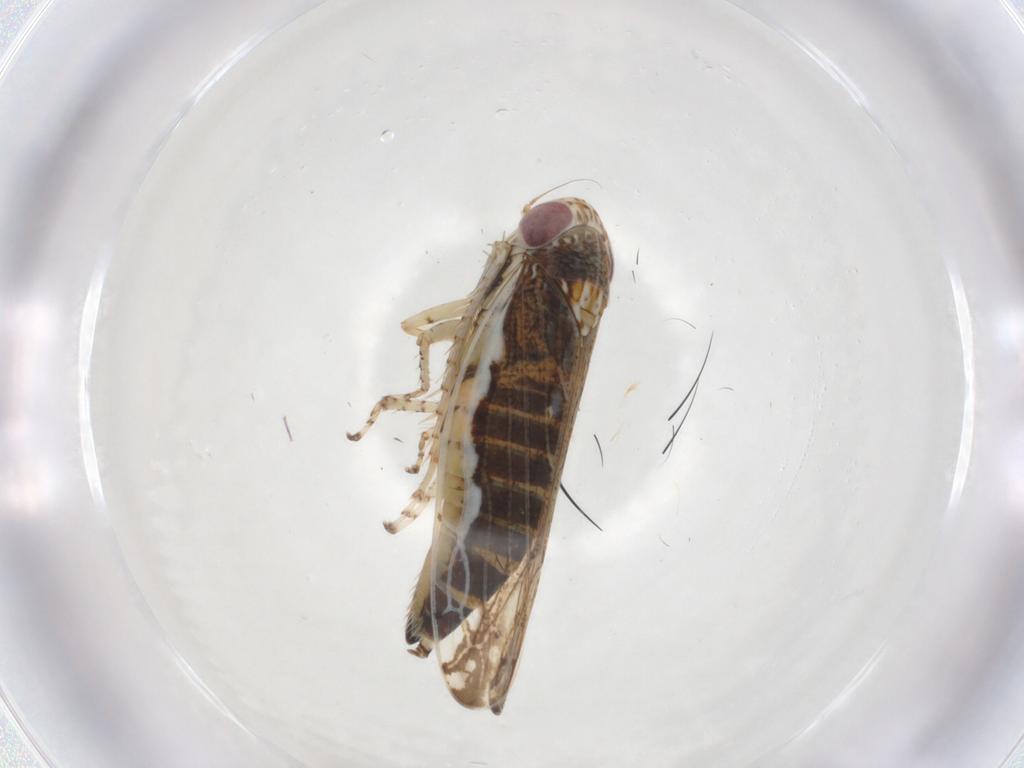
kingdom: Animalia
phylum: Arthropoda
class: Insecta
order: Hemiptera
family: Cicadellidae
